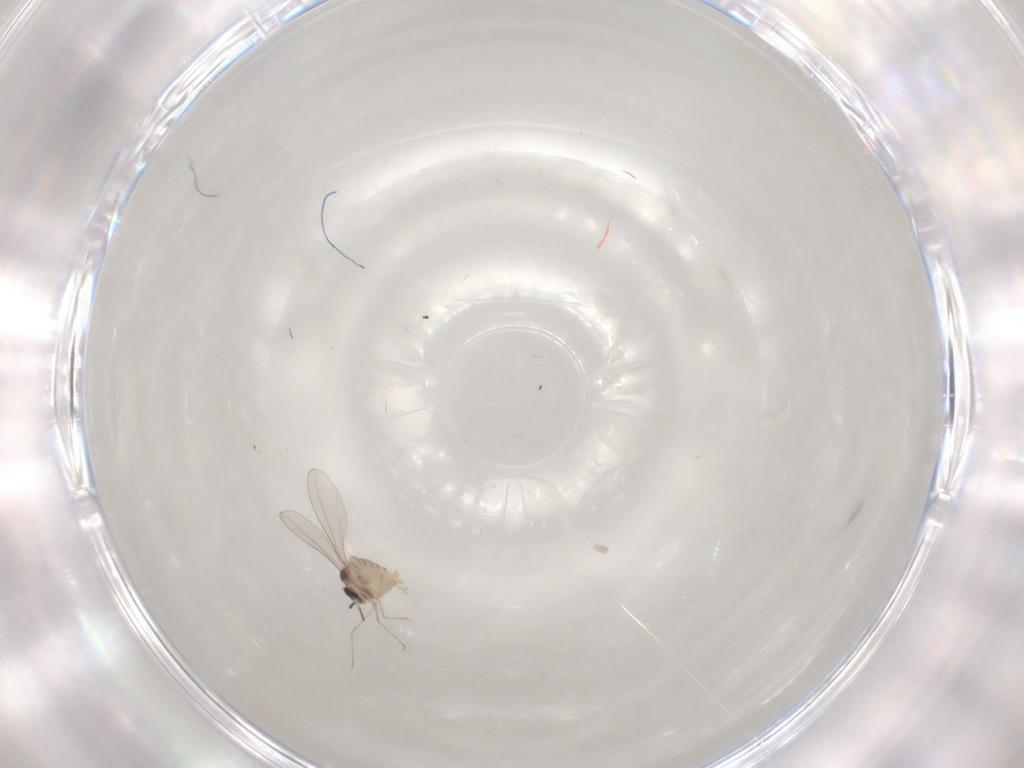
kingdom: Animalia
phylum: Arthropoda
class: Insecta
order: Diptera
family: Cecidomyiidae
